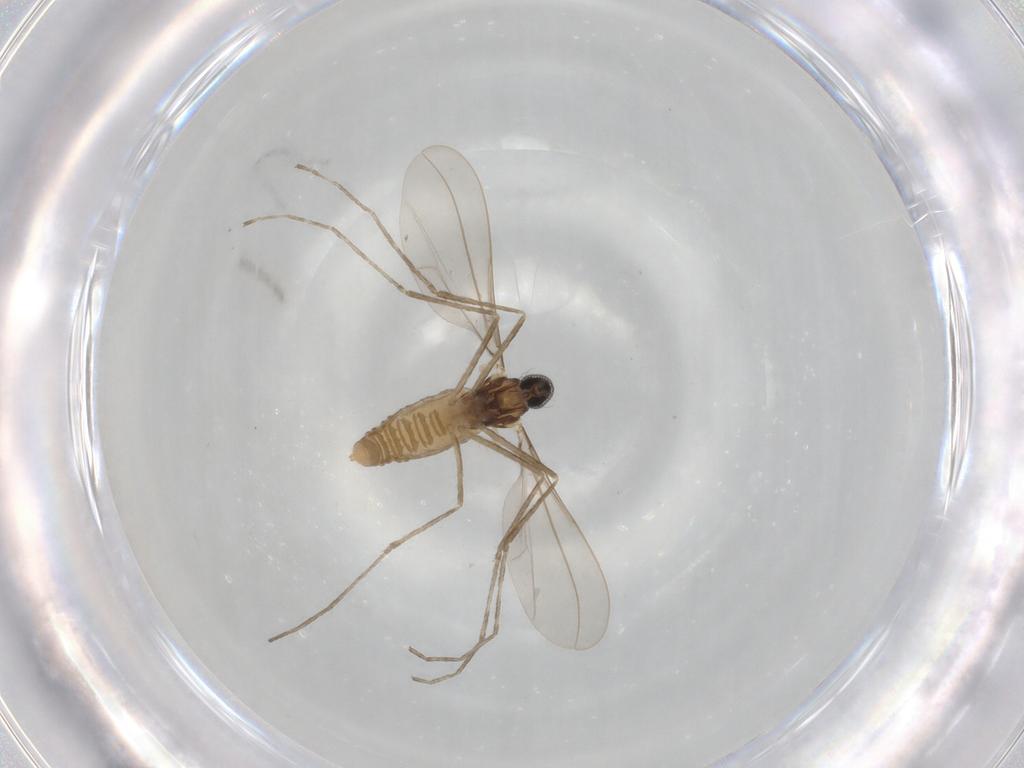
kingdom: Animalia
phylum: Arthropoda
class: Insecta
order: Diptera
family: Cecidomyiidae
